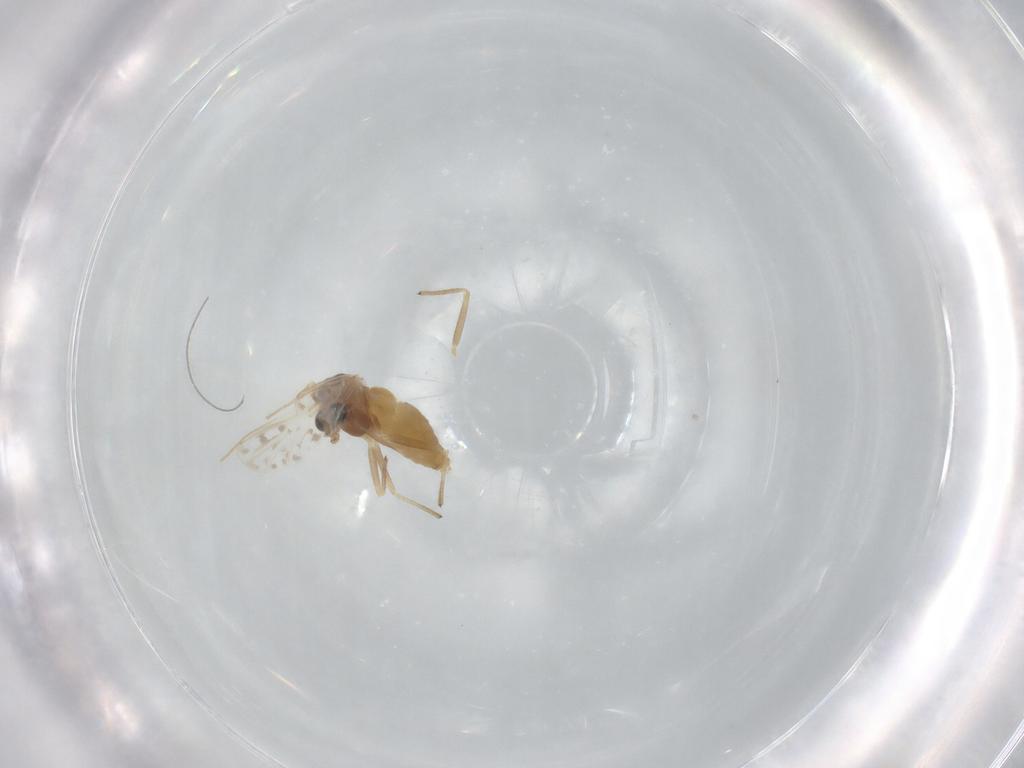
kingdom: Animalia
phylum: Arthropoda
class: Insecta
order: Diptera
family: Chironomidae
